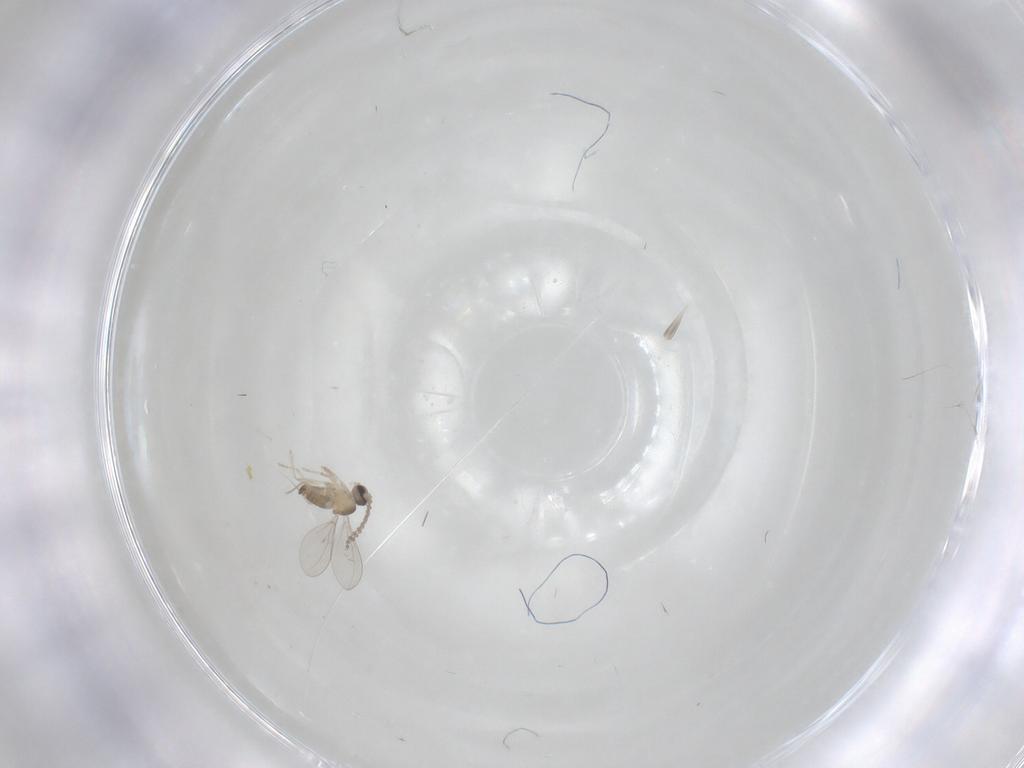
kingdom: Animalia
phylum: Arthropoda
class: Insecta
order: Diptera
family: Cecidomyiidae
